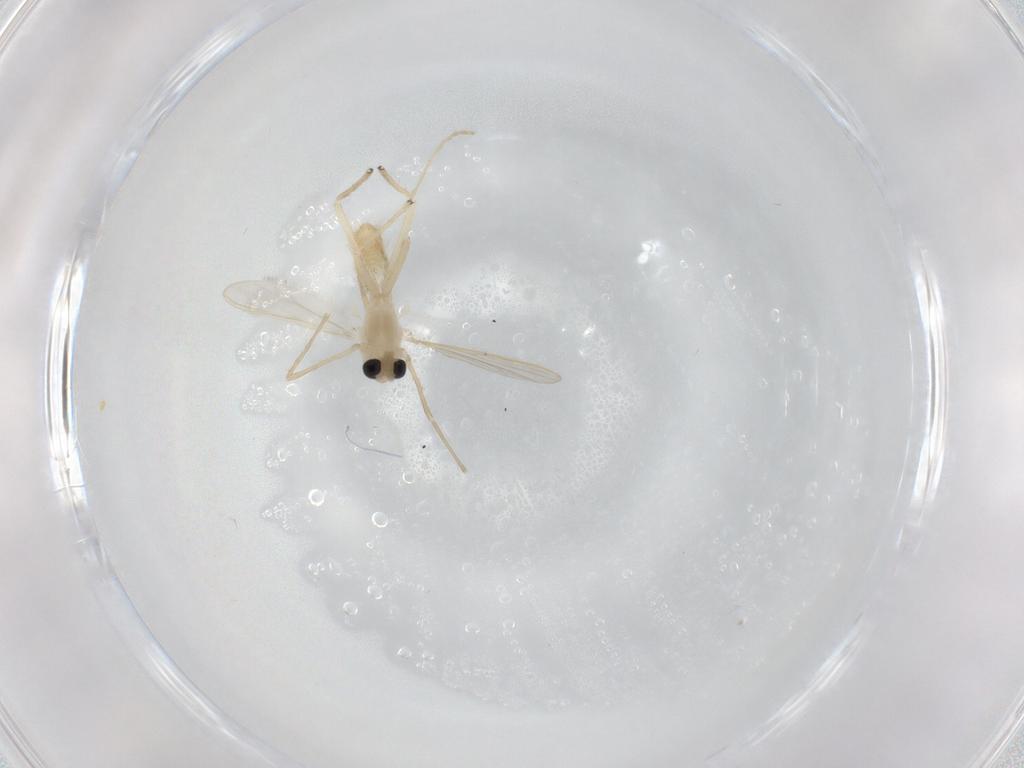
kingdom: Animalia
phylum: Arthropoda
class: Insecta
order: Diptera
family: Chironomidae
